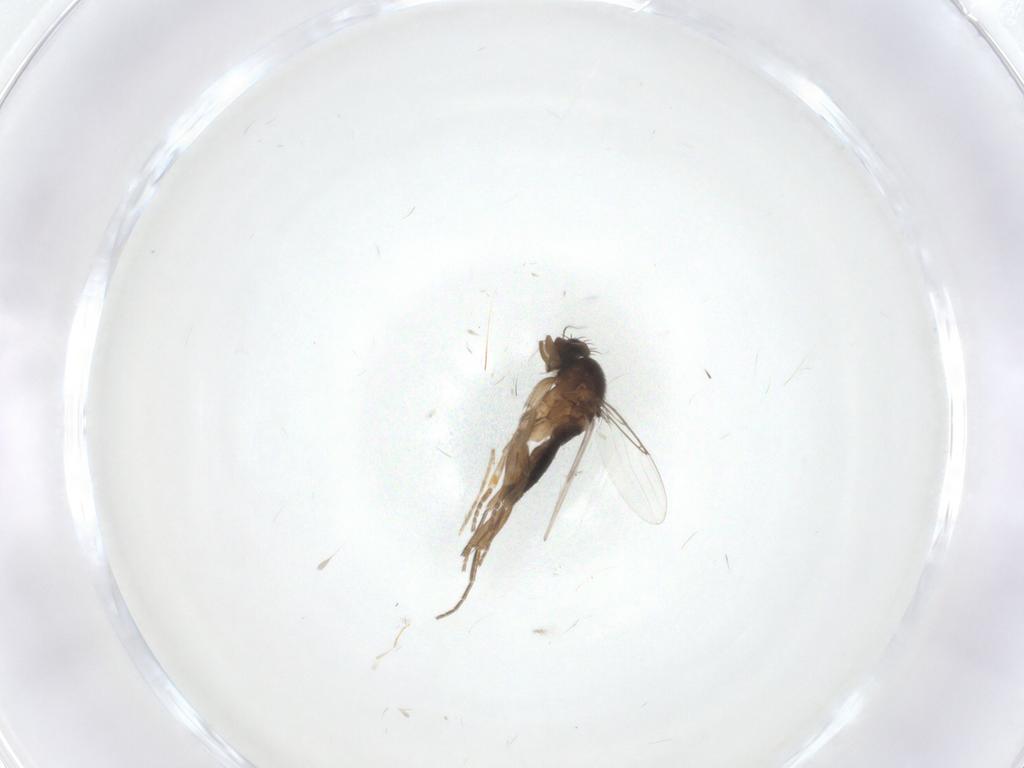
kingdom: Animalia
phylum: Arthropoda
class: Insecta
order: Diptera
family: Phoridae
